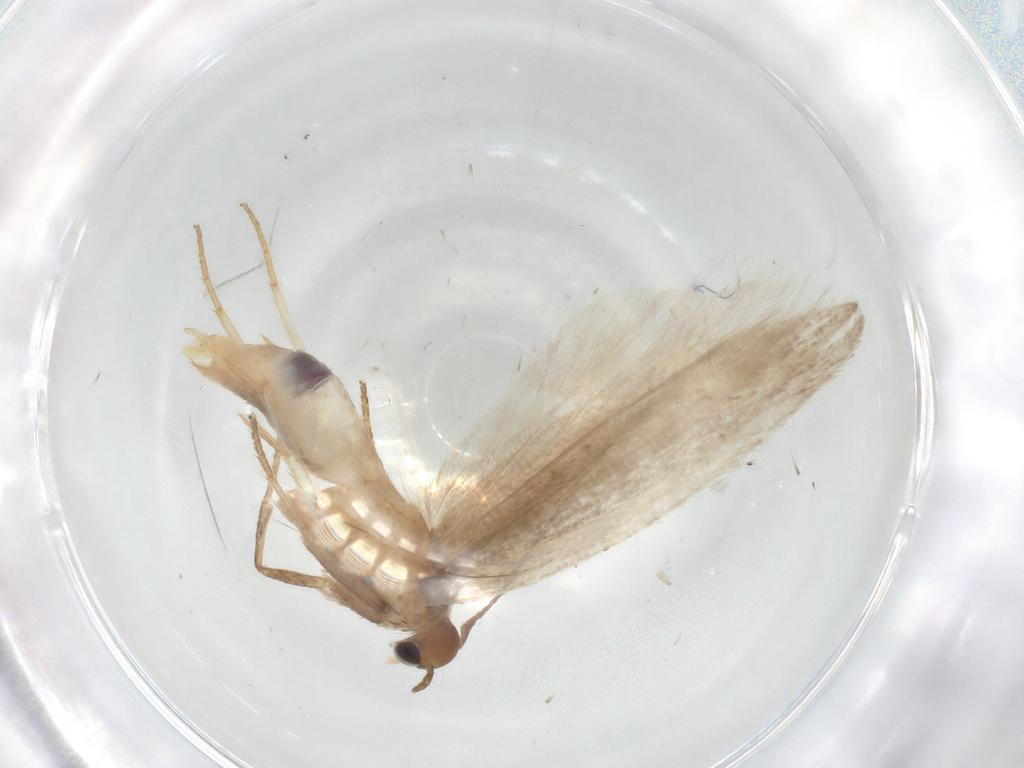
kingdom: Animalia
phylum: Arthropoda
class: Insecta
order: Lepidoptera
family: Gelechiidae
